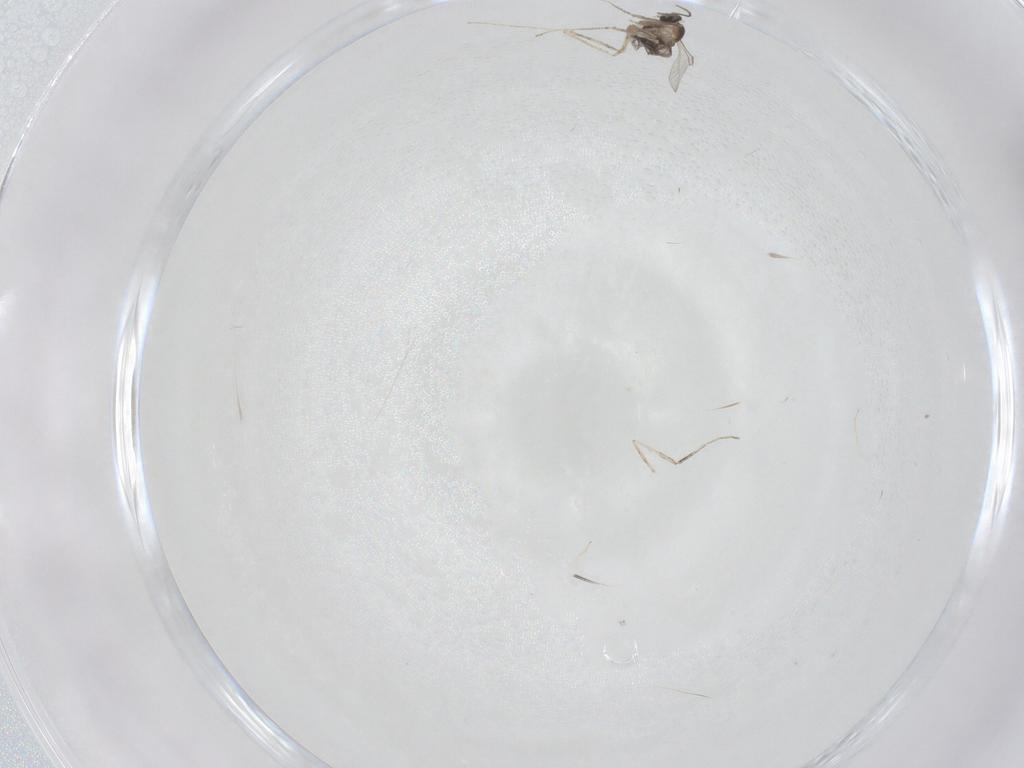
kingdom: Animalia
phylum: Arthropoda
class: Insecta
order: Diptera
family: Cecidomyiidae
